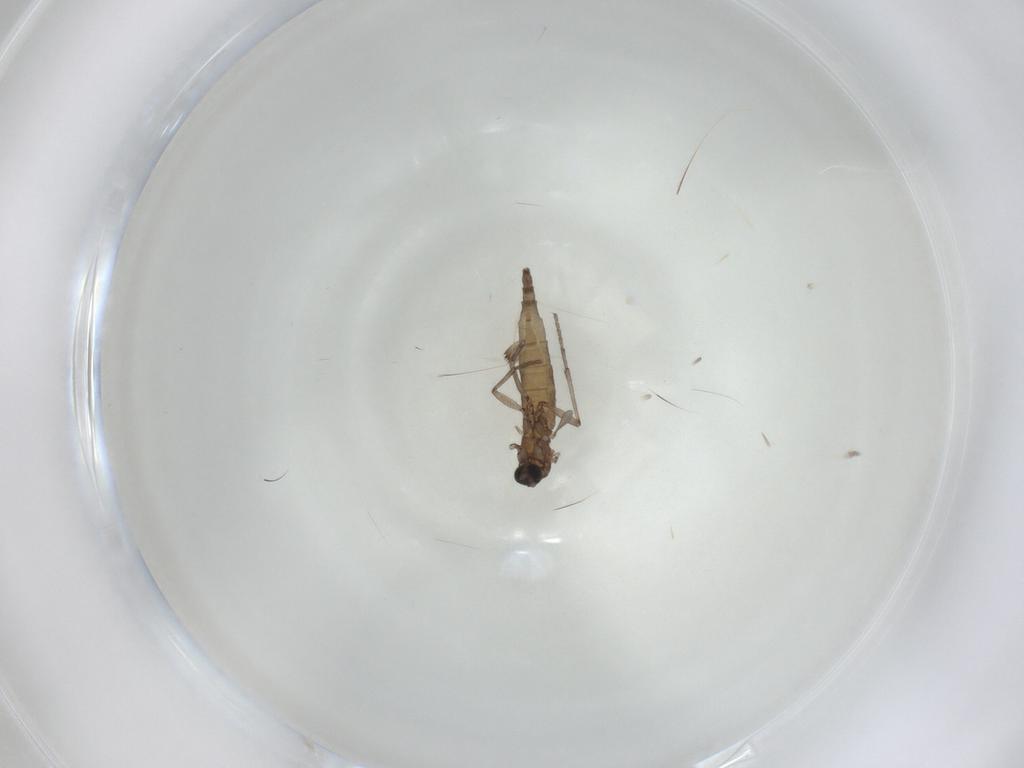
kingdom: Animalia
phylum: Arthropoda
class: Insecta
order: Diptera
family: Sciaridae
